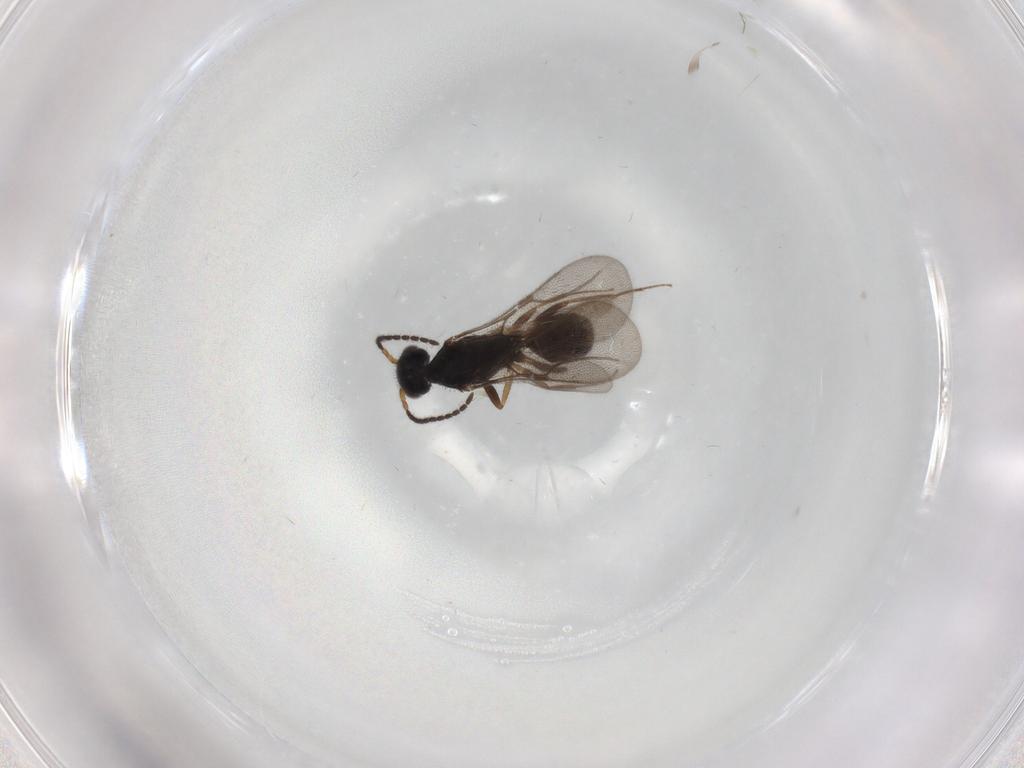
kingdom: Animalia
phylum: Arthropoda
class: Insecta
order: Hymenoptera
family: Bethylidae
